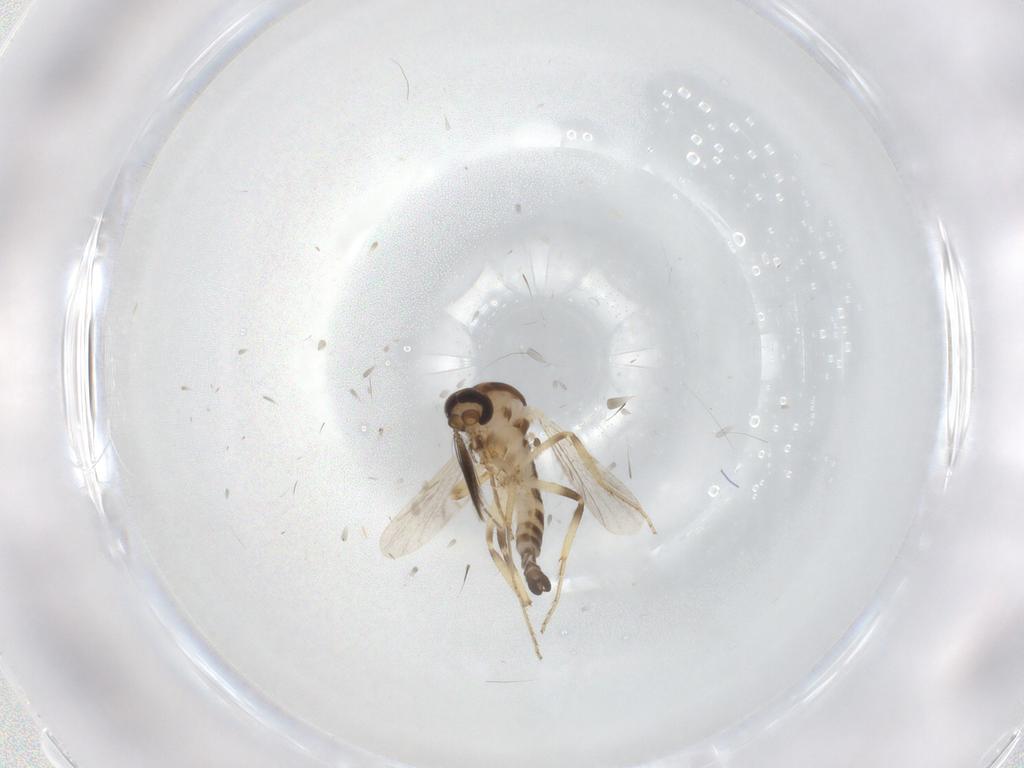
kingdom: Animalia
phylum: Arthropoda
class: Insecta
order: Diptera
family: Ceratopogonidae
